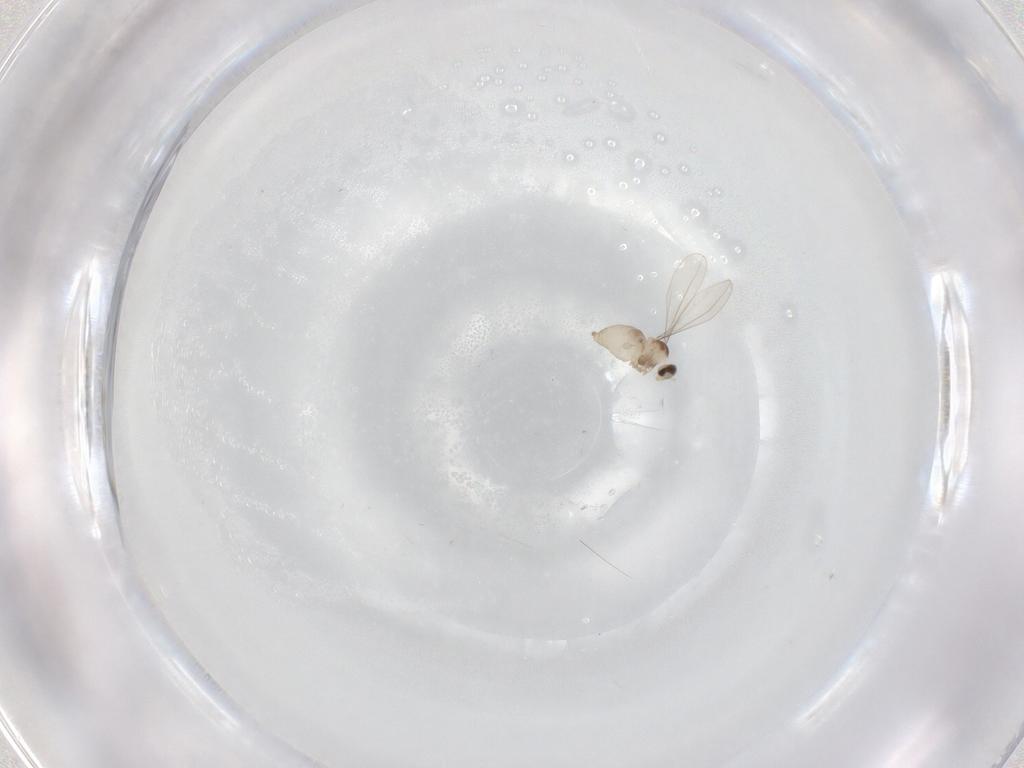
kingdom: Animalia
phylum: Arthropoda
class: Insecta
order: Diptera
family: Cecidomyiidae
